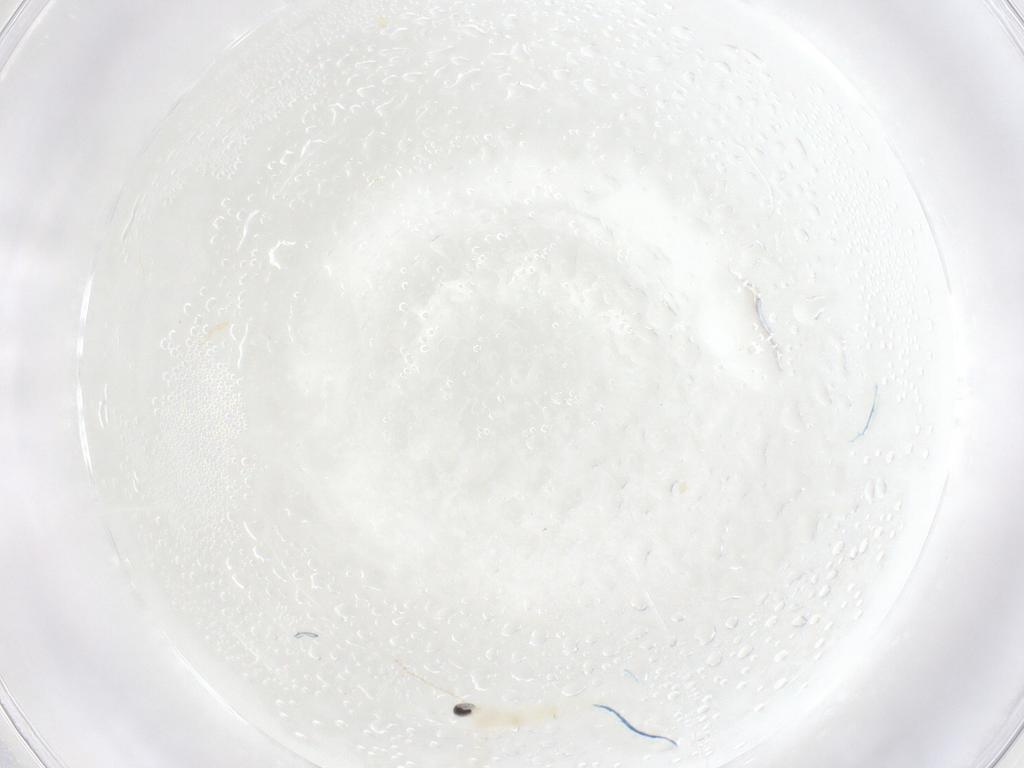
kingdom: Animalia
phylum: Arthropoda
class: Insecta
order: Diptera
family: Cecidomyiidae
